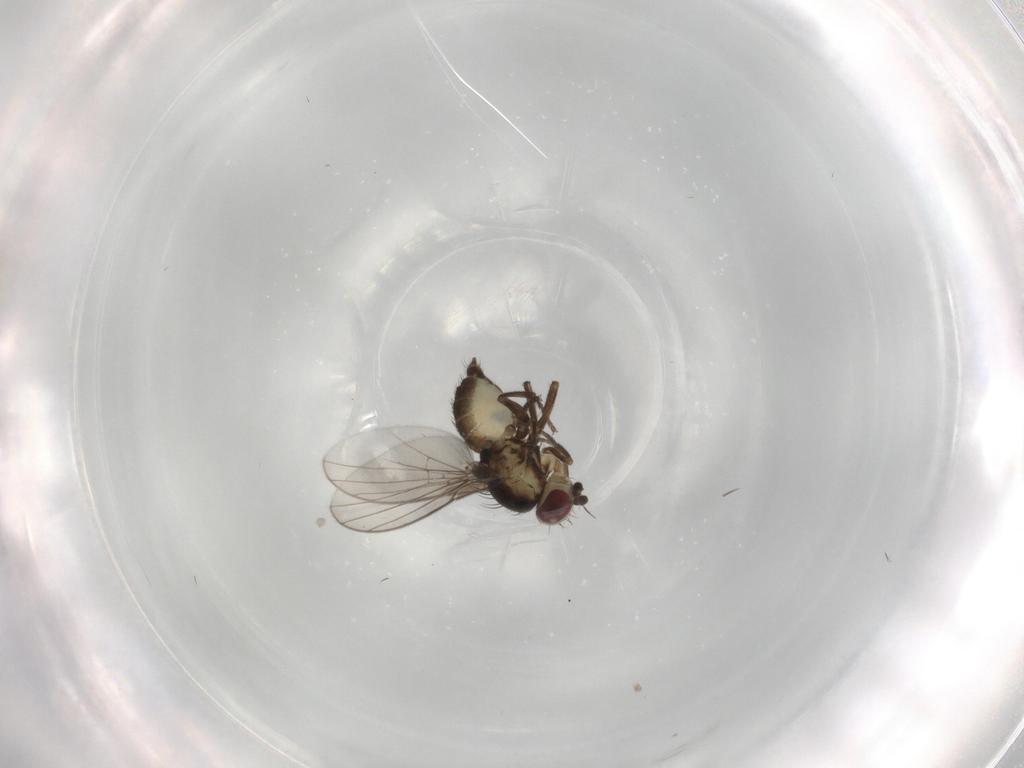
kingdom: Animalia
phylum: Arthropoda
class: Insecta
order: Diptera
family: Agromyzidae
